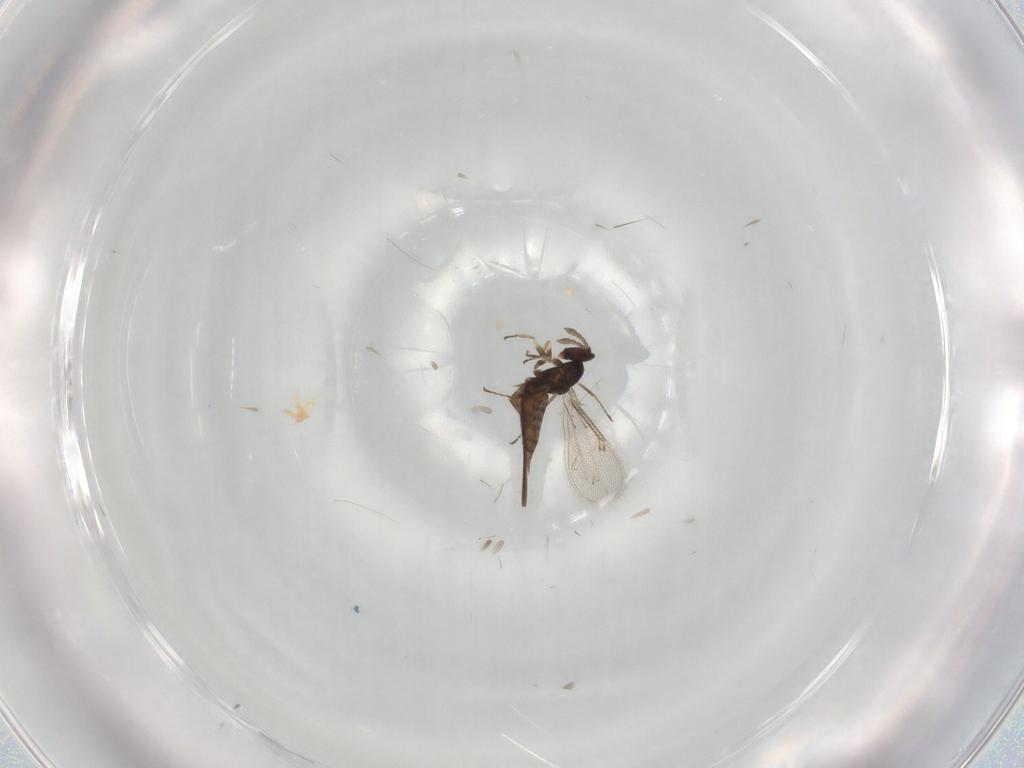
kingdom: Animalia
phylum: Arthropoda
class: Insecta
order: Hymenoptera
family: Eulophidae
